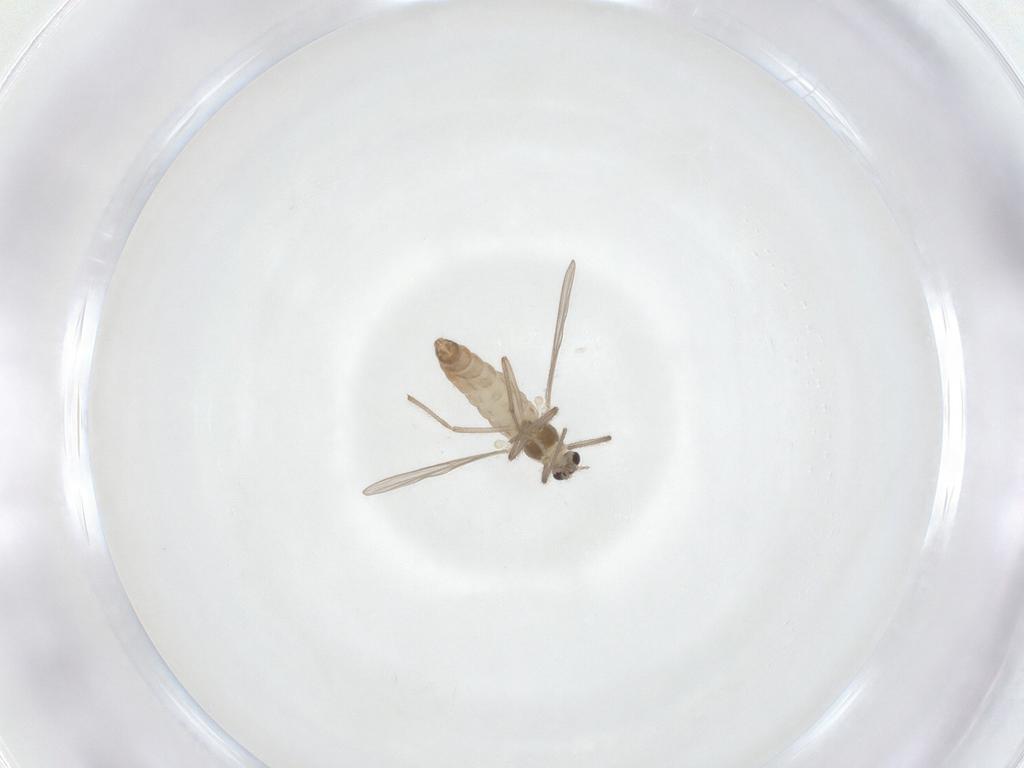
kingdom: Animalia
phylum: Arthropoda
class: Insecta
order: Diptera
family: Chironomidae
